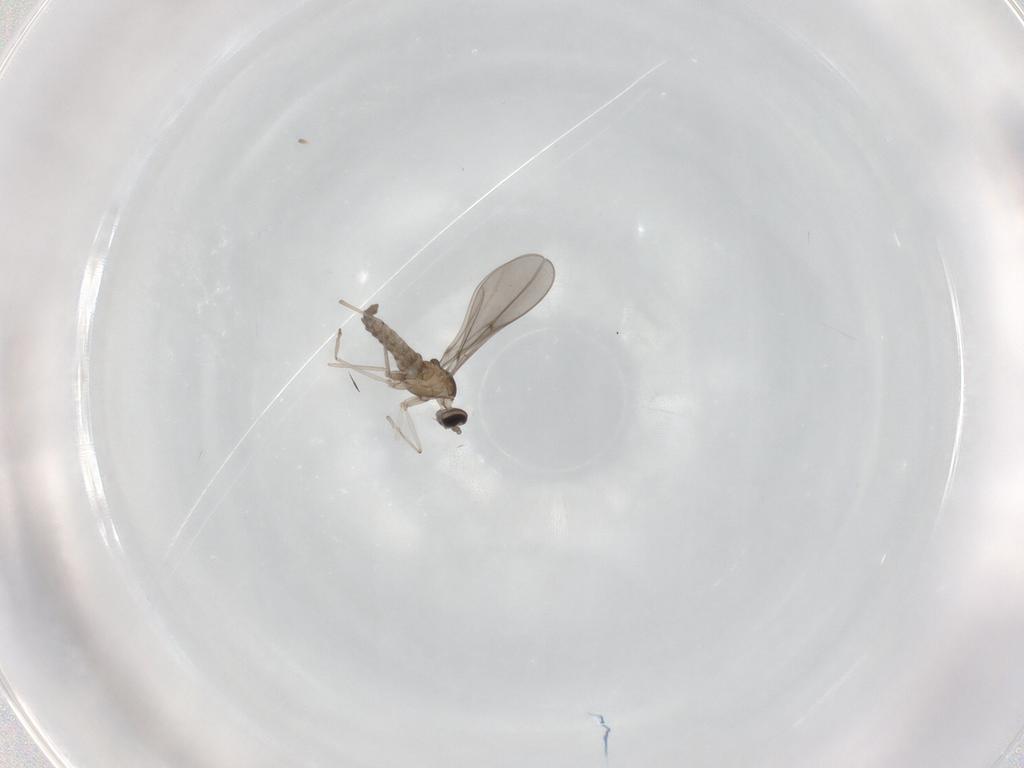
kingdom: Animalia
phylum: Arthropoda
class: Insecta
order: Diptera
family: Cecidomyiidae
